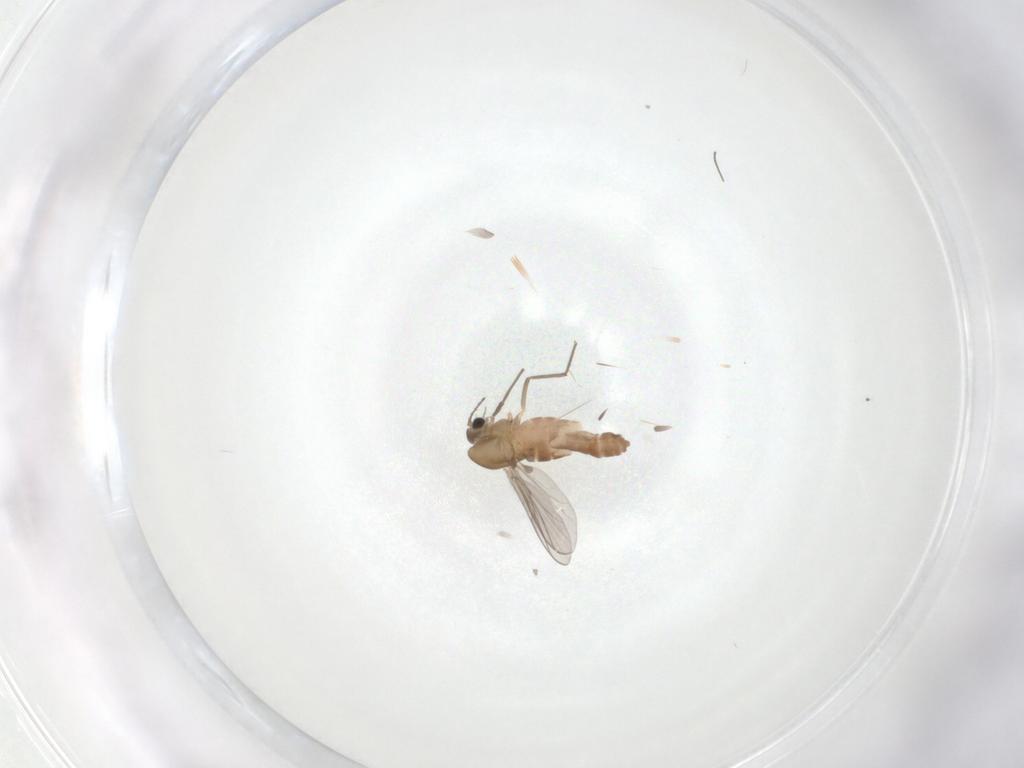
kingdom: Animalia
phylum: Arthropoda
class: Insecta
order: Diptera
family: Chironomidae
